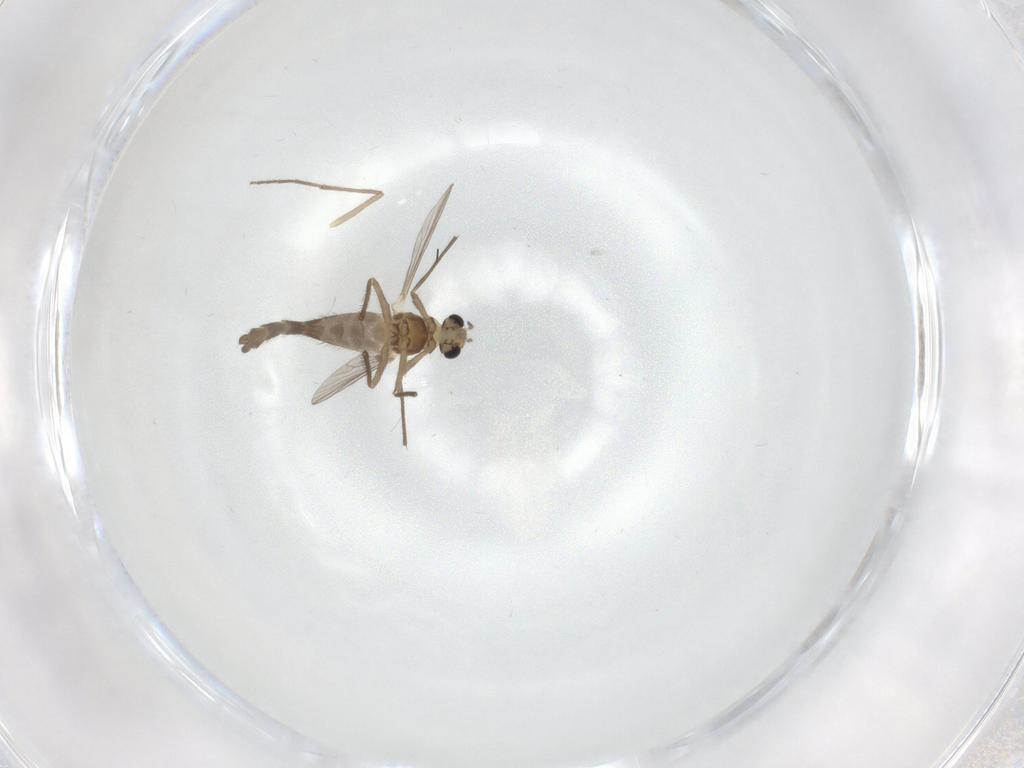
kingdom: Animalia
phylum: Arthropoda
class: Insecta
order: Diptera
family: Chironomidae
